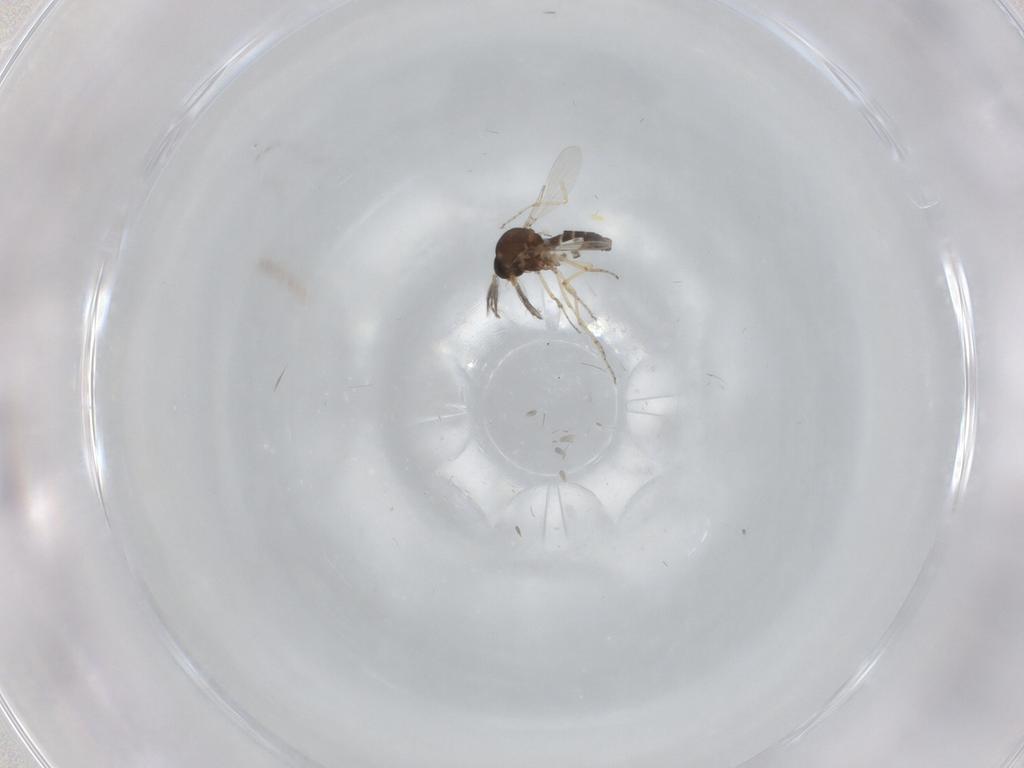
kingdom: Animalia
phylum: Arthropoda
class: Insecta
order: Diptera
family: Ceratopogonidae
